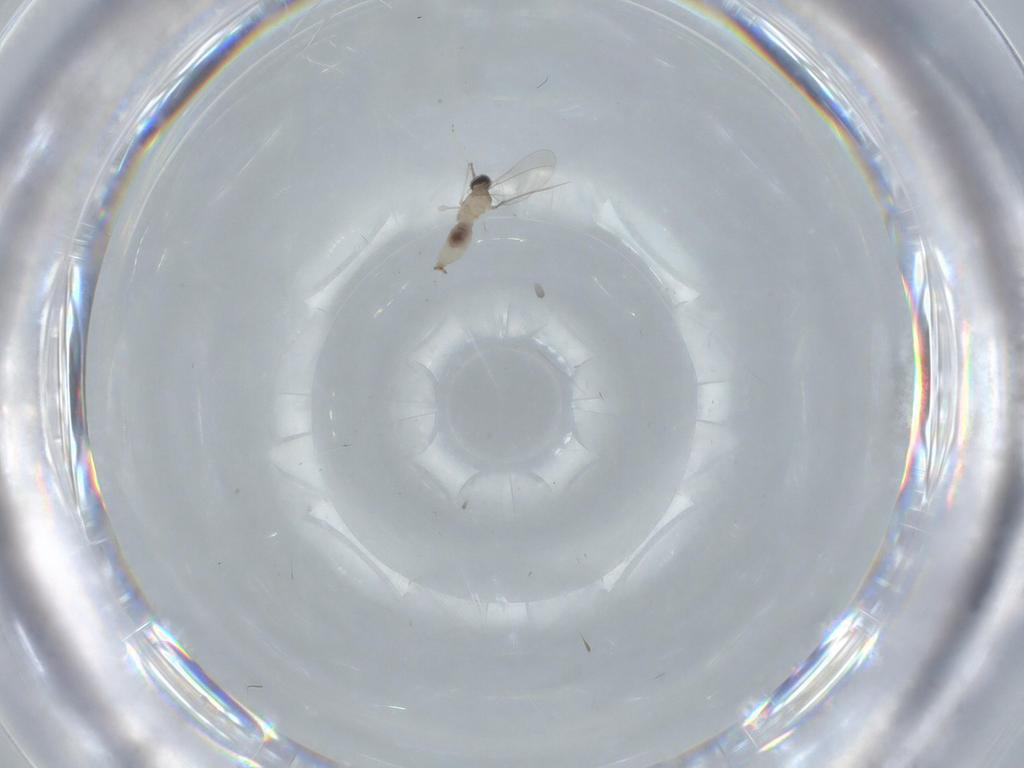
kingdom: Animalia
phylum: Arthropoda
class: Insecta
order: Diptera
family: Cecidomyiidae
